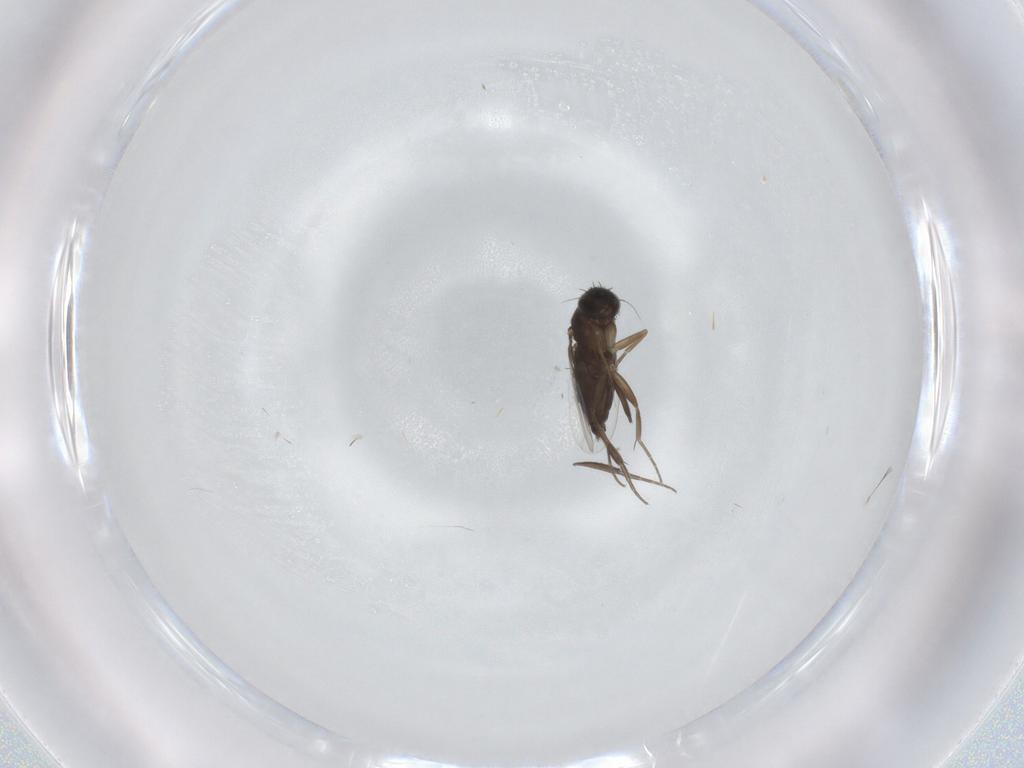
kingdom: Animalia
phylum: Arthropoda
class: Insecta
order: Diptera
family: Phoridae
